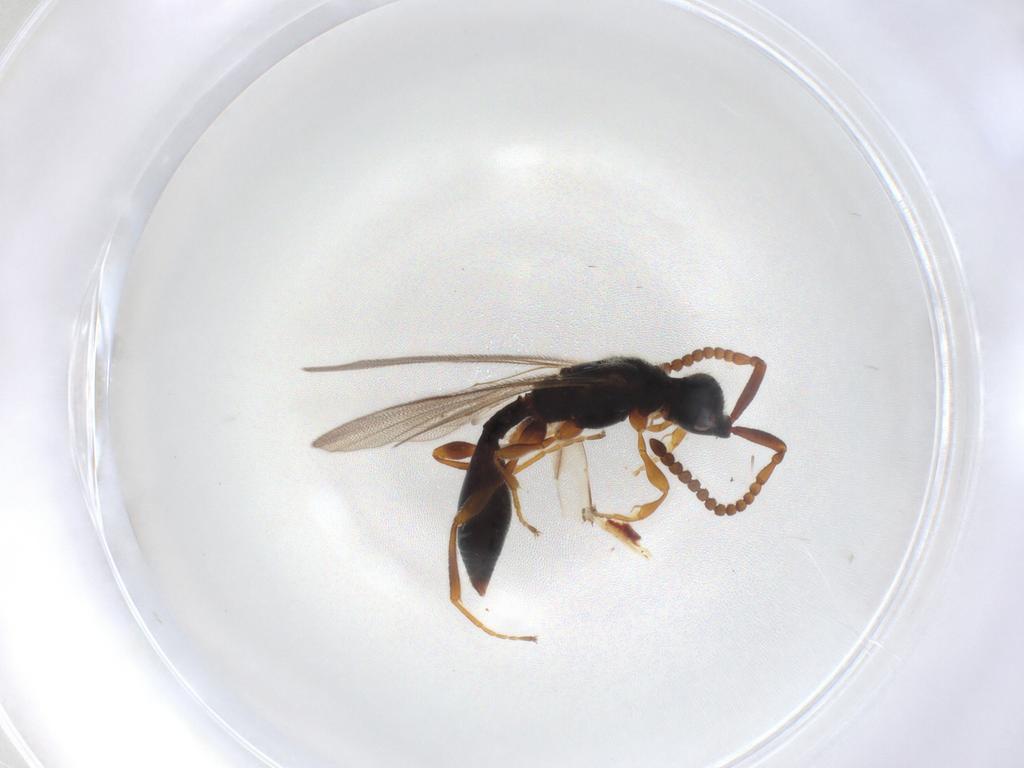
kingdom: Animalia
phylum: Arthropoda
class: Insecta
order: Hymenoptera
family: Diapriidae
